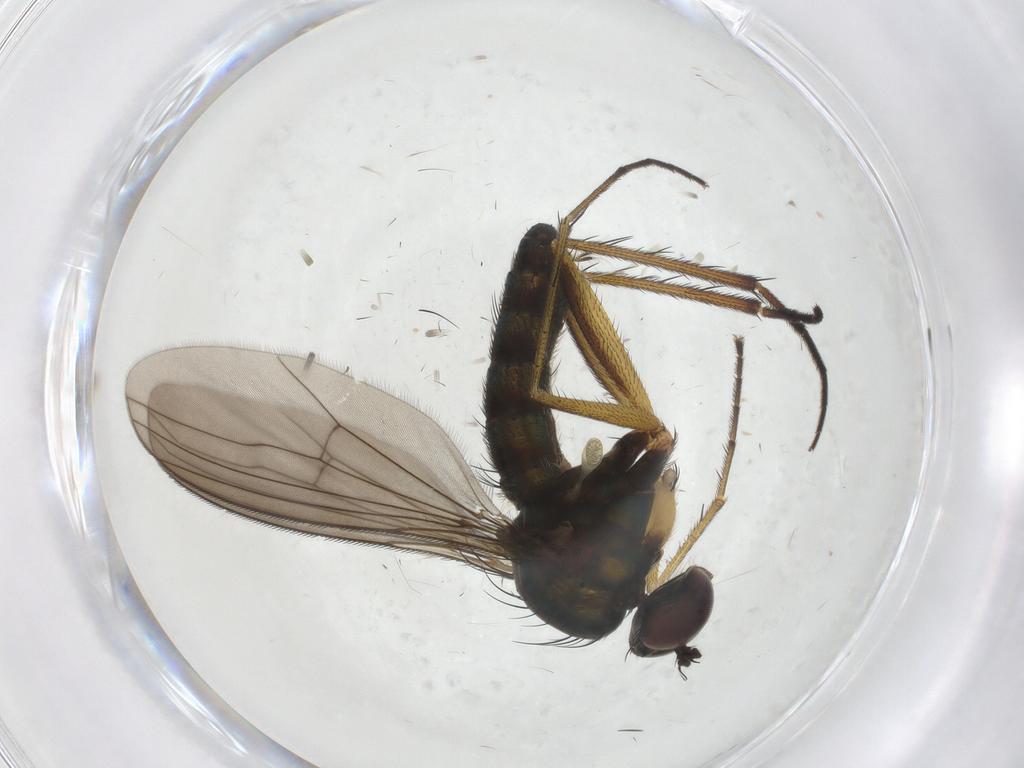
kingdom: Animalia
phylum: Arthropoda
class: Insecta
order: Diptera
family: Dolichopodidae
